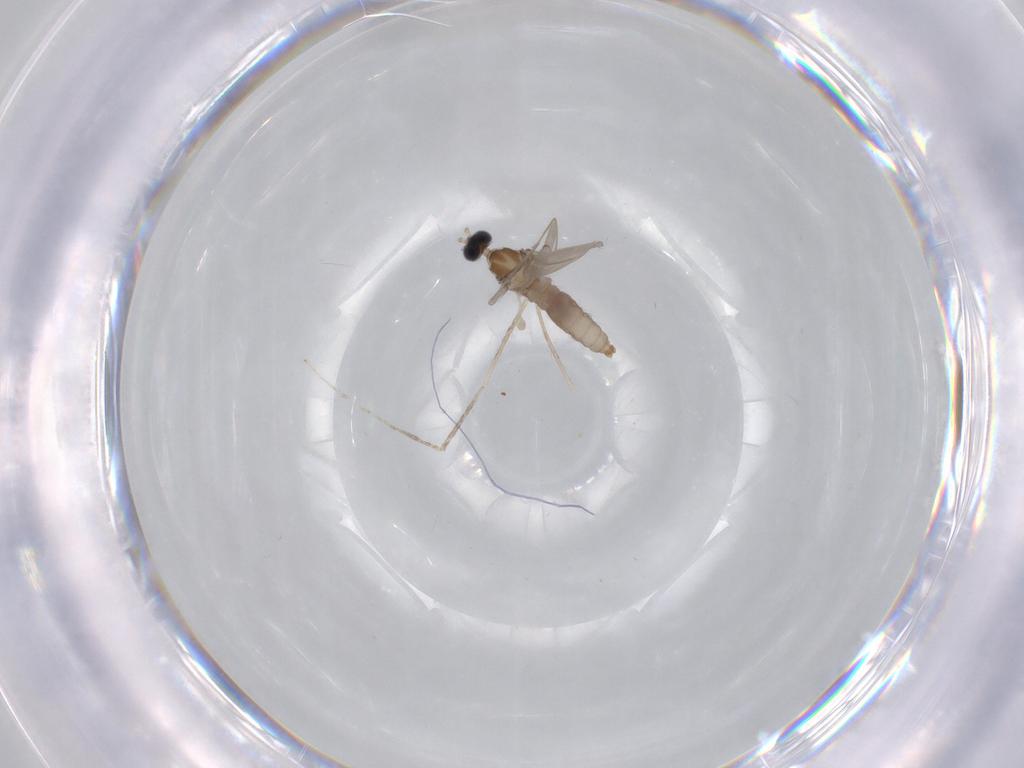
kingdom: Animalia
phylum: Arthropoda
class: Insecta
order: Diptera
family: Cecidomyiidae
